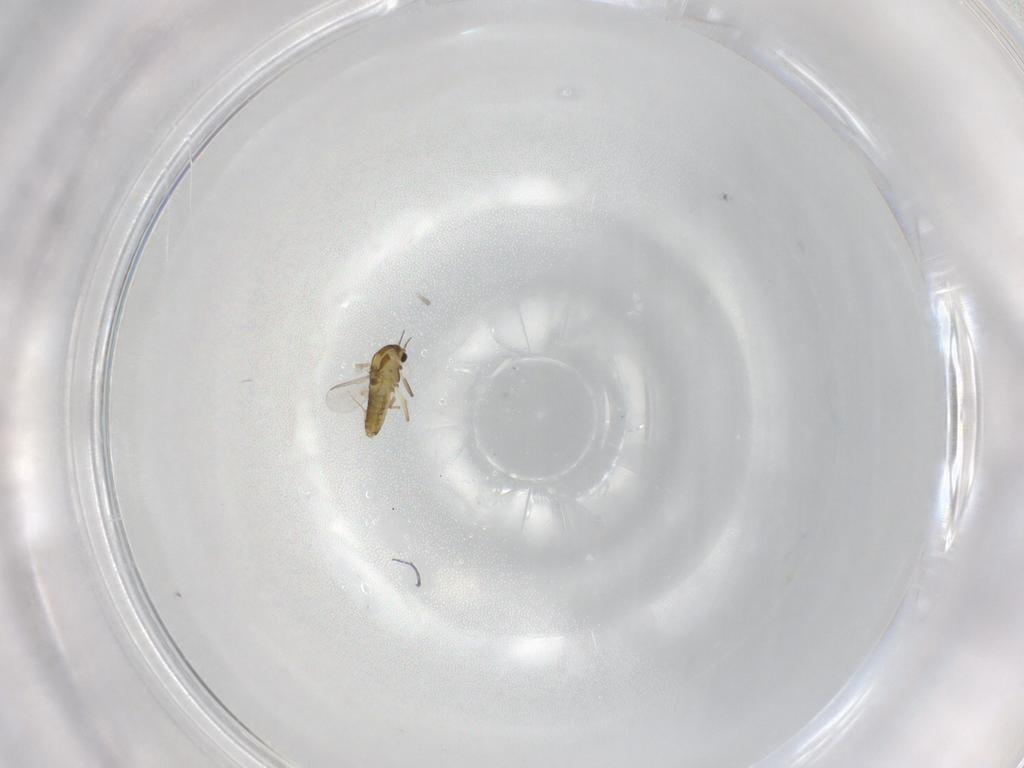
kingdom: Animalia
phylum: Arthropoda
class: Insecta
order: Diptera
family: Chironomidae
